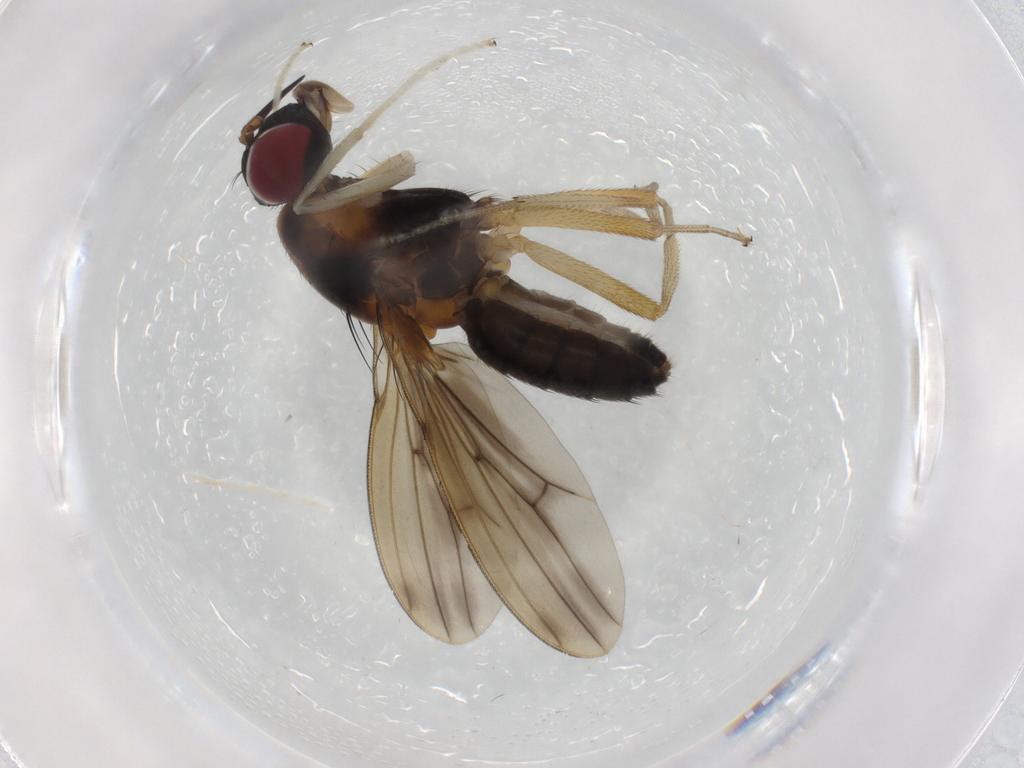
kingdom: Animalia
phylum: Arthropoda
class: Insecta
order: Diptera
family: Lauxaniidae
